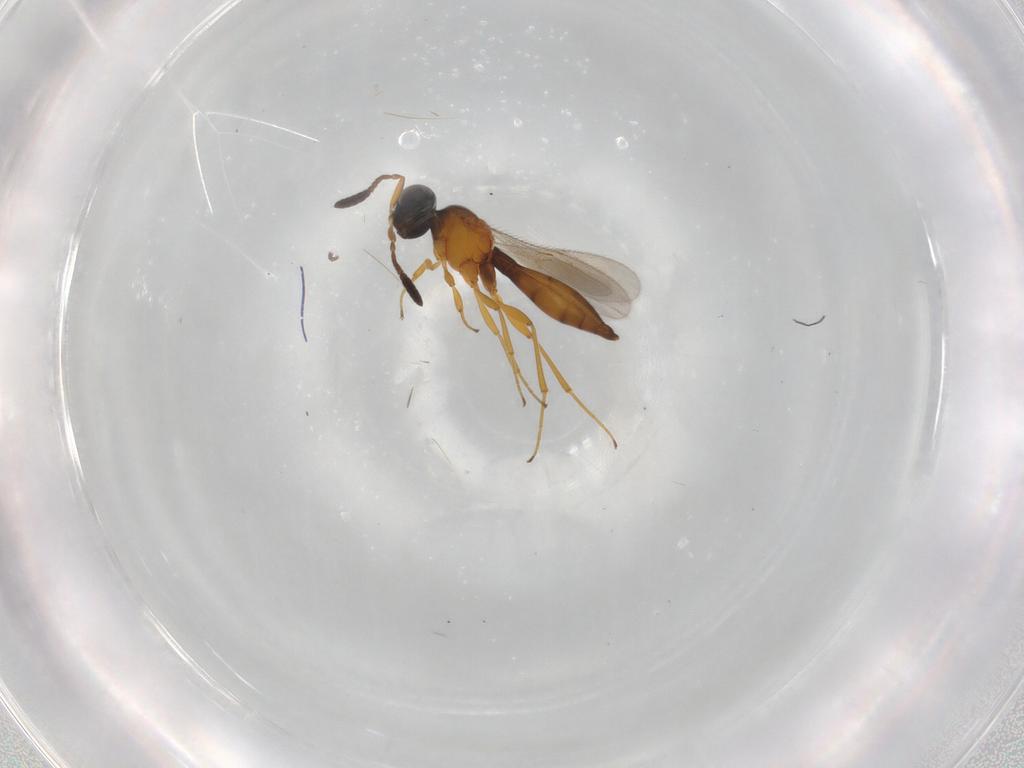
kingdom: Animalia
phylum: Arthropoda
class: Insecta
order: Hymenoptera
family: Scelionidae
